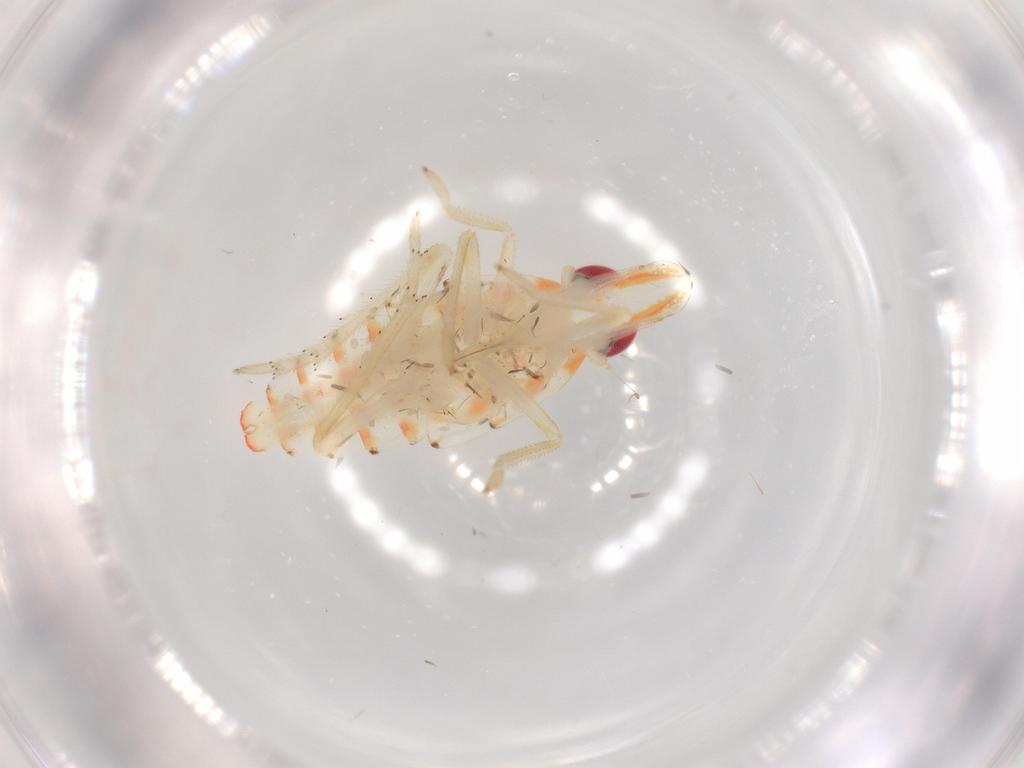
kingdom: Animalia
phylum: Arthropoda
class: Insecta
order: Hemiptera
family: Tropiduchidae
